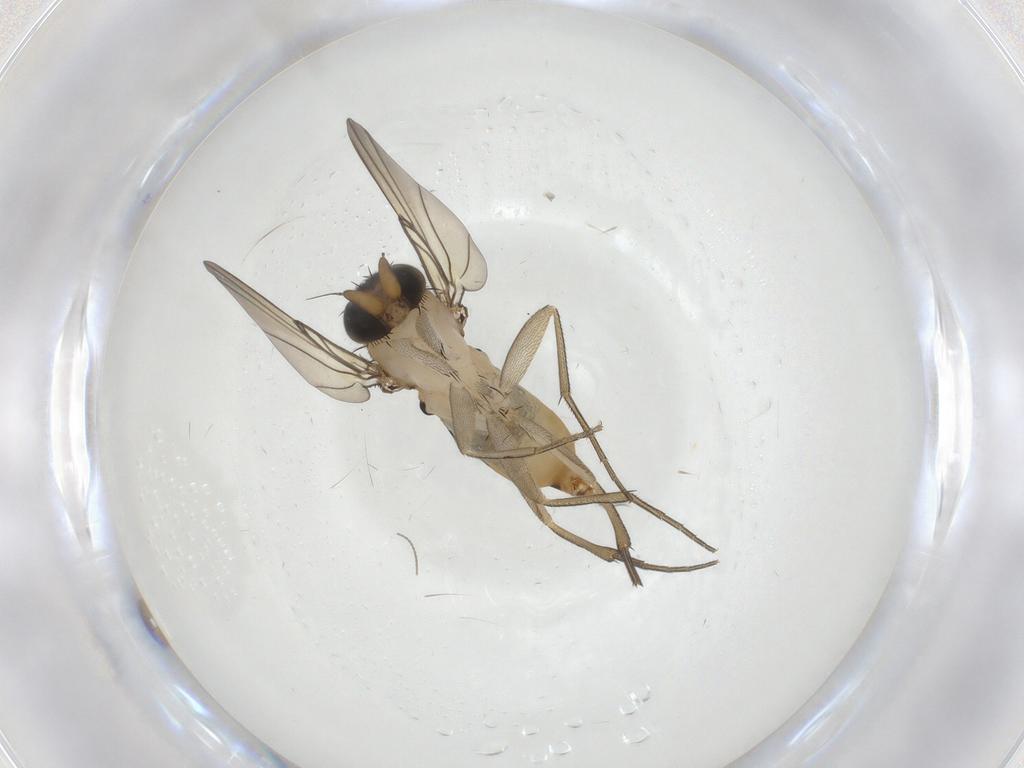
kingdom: Animalia
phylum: Arthropoda
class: Insecta
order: Diptera
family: Phoridae
